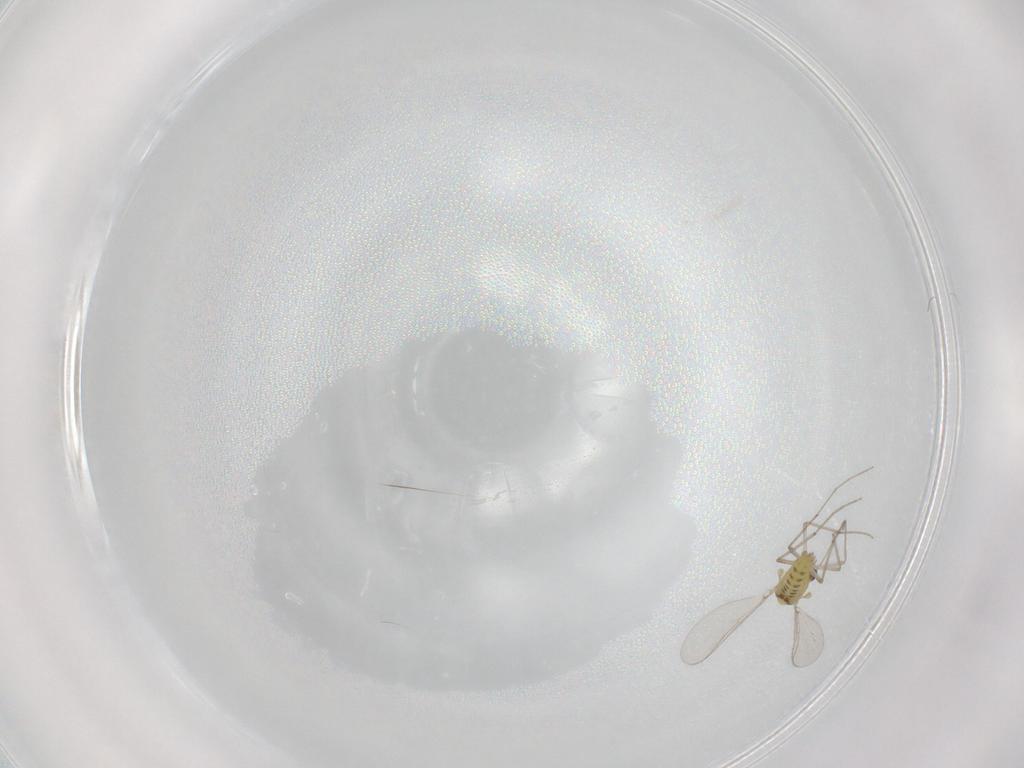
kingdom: Animalia
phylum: Arthropoda
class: Insecta
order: Diptera
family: Chironomidae
